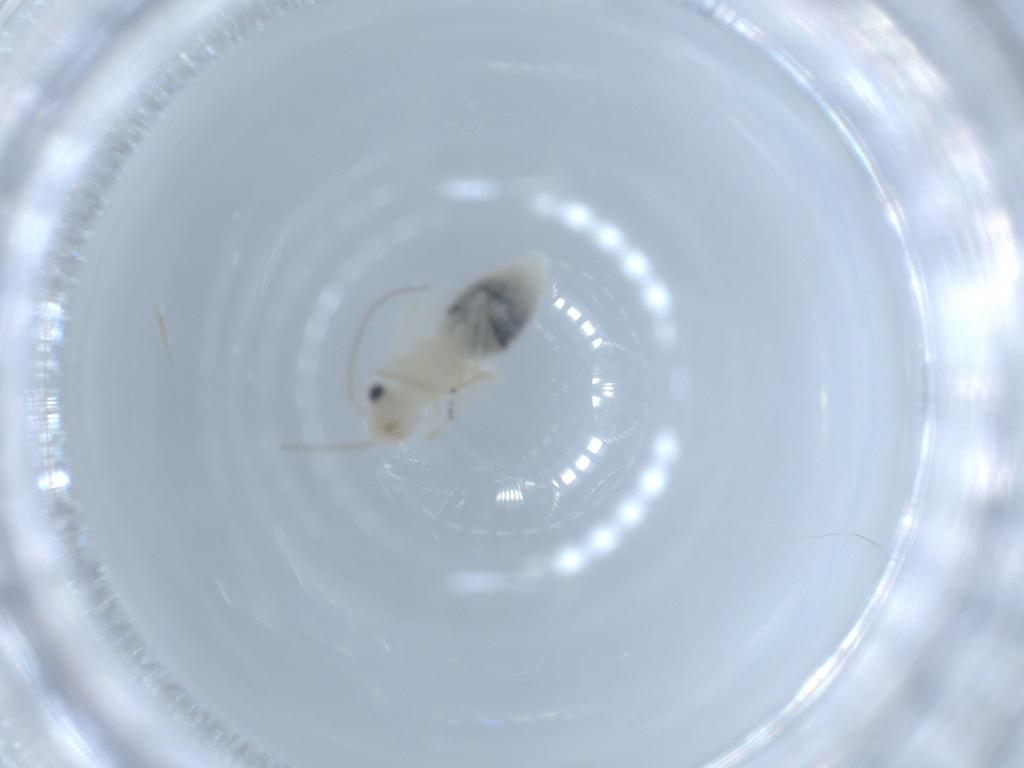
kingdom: Animalia
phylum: Arthropoda
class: Insecta
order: Psocodea
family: Caeciliusidae
